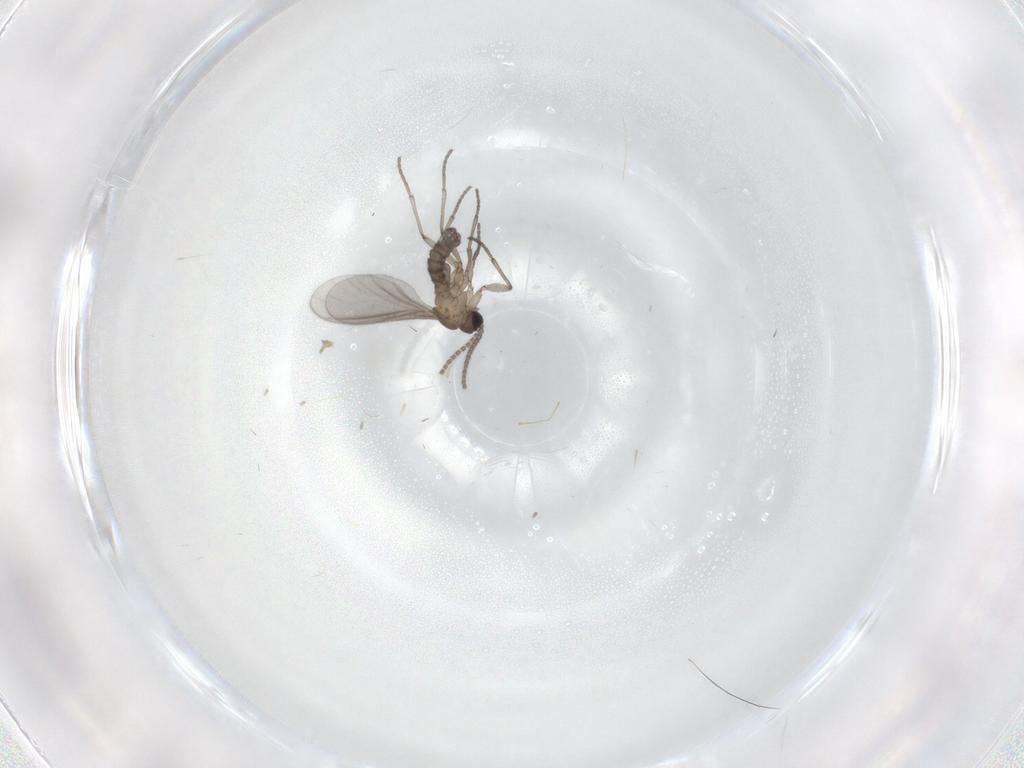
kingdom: Animalia
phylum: Arthropoda
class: Insecta
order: Diptera
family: Sciaridae
